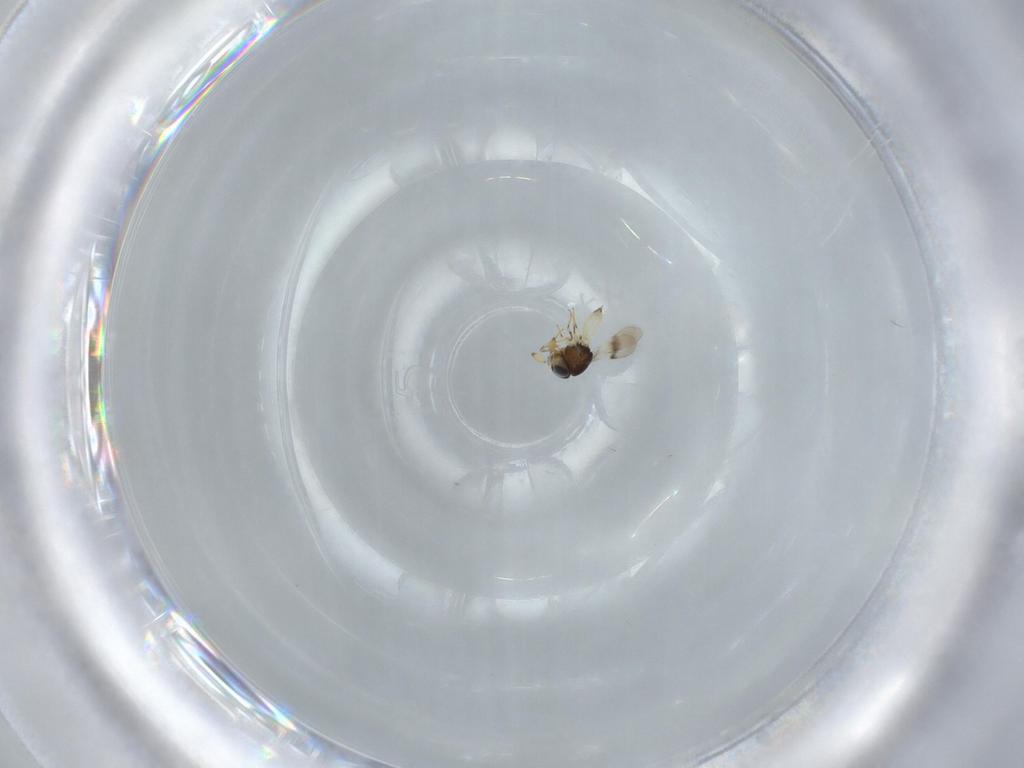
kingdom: Animalia
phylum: Arthropoda
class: Insecta
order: Hymenoptera
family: Scelionidae
